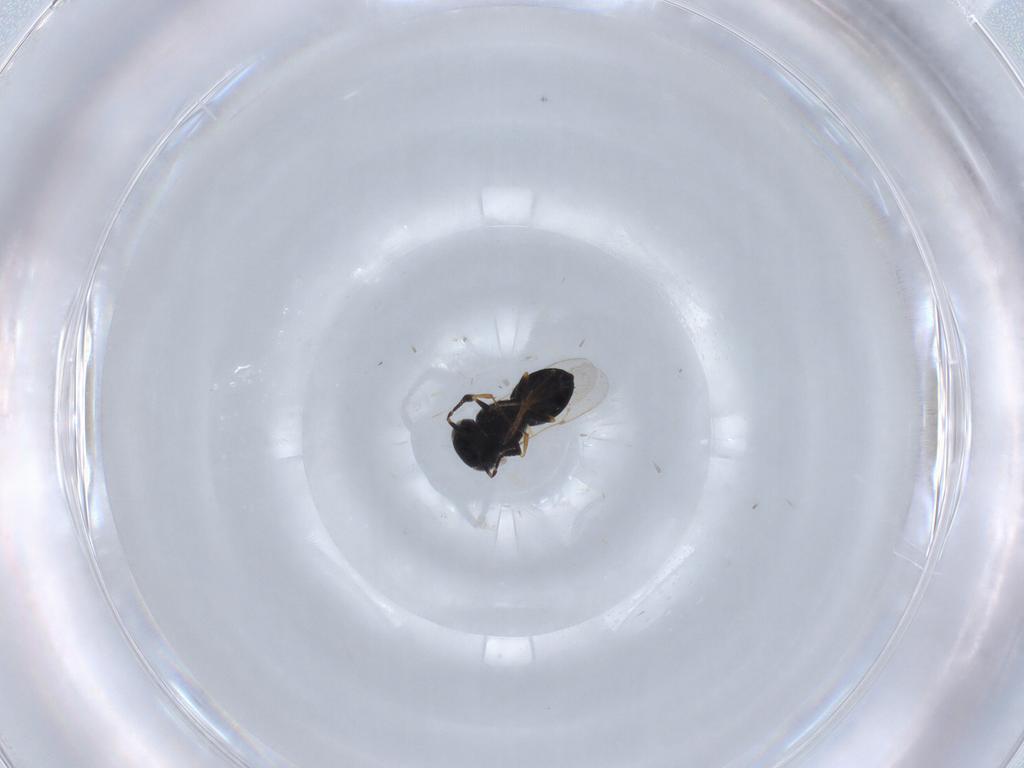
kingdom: Animalia
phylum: Arthropoda
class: Insecta
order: Hymenoptera
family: Scelionidae
